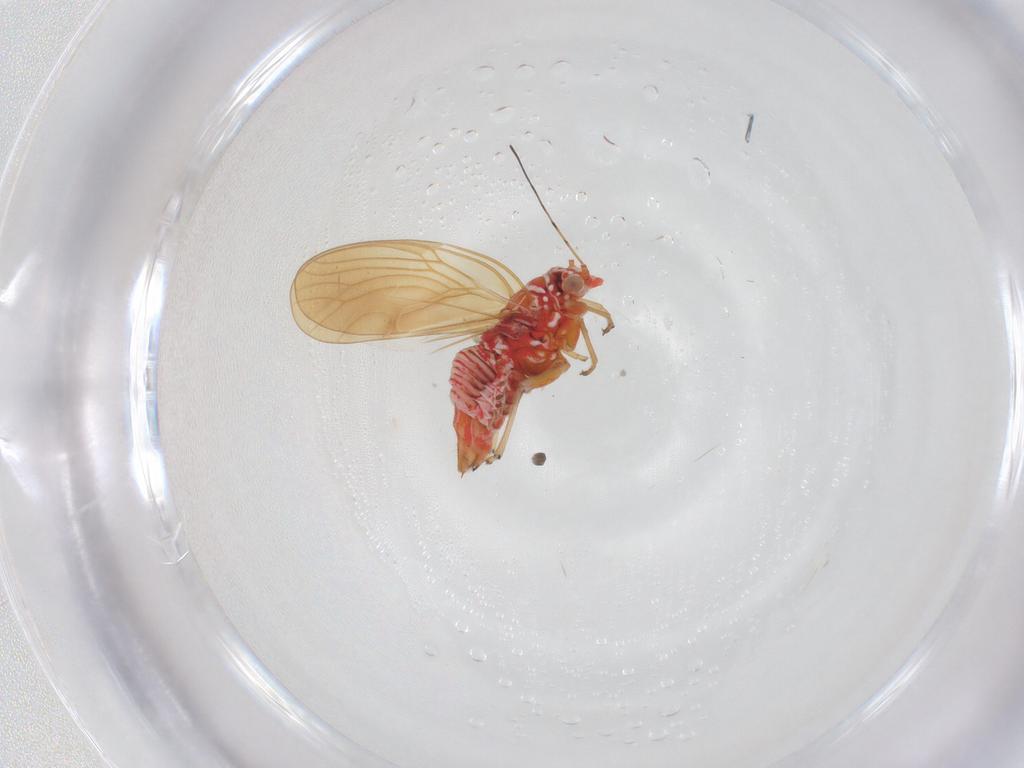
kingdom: Animalia
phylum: Arthropoda
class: Insecta
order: Hemiptera
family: Psyllidae
